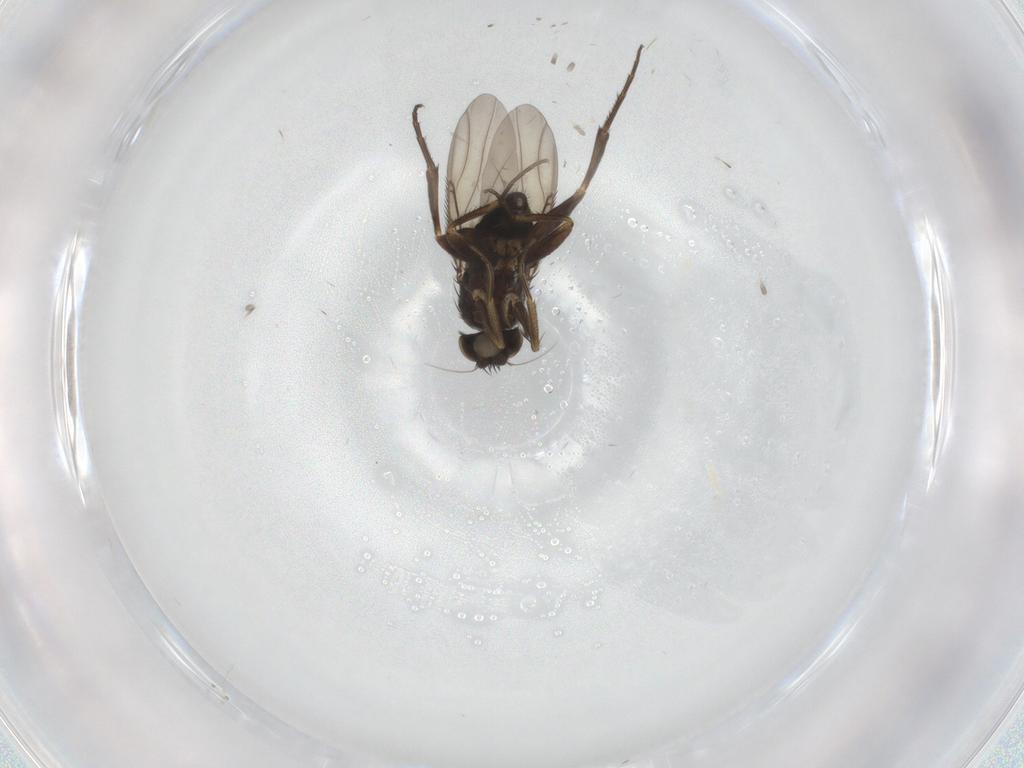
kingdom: Animalia
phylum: Arthropoda
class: Insecta
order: Diptera
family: Phoridae
